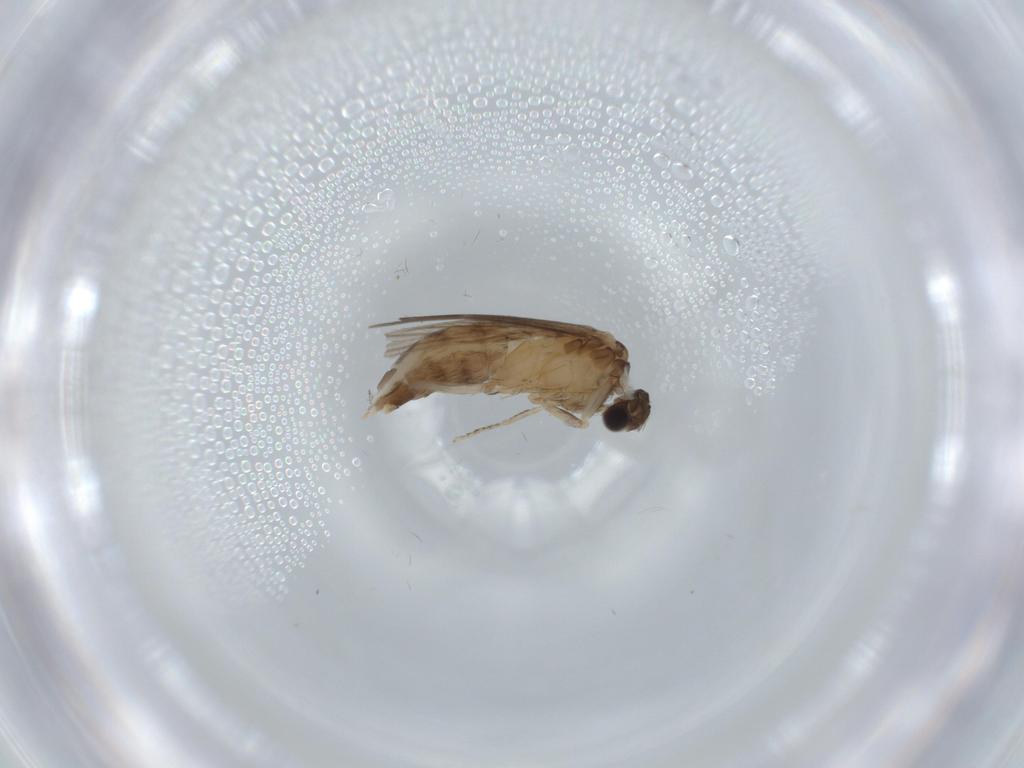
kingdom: Animalia
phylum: Arthropoda
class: Insecta
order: Trichoptera
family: Hydroptilidae
